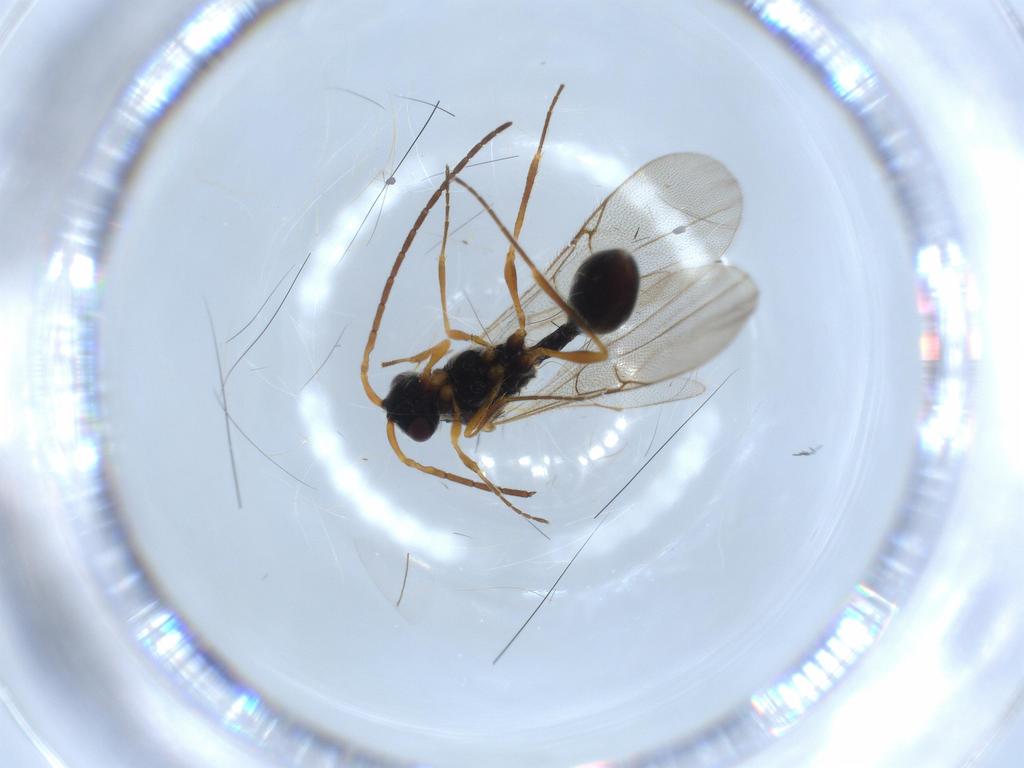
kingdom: Animalia
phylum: Arthropoda
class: Insecta
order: Hymenoptera
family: Diapriidae
